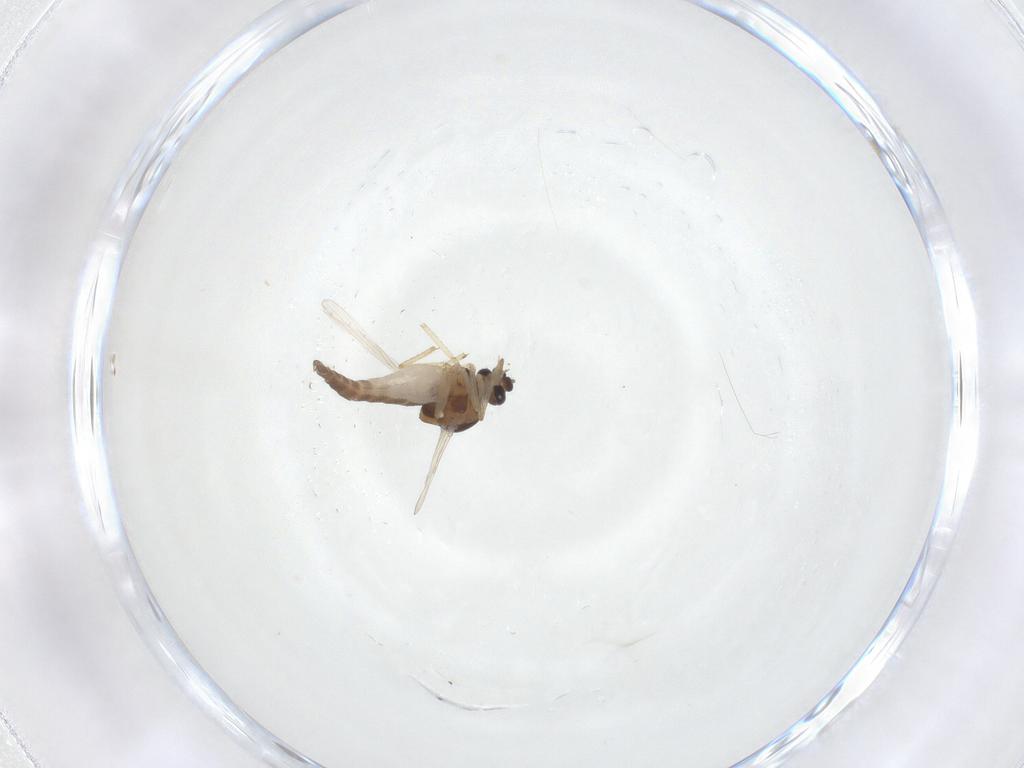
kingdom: Animalia
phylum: Arthropoda
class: Insecta
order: Diptera
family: Ceratopogonidae
